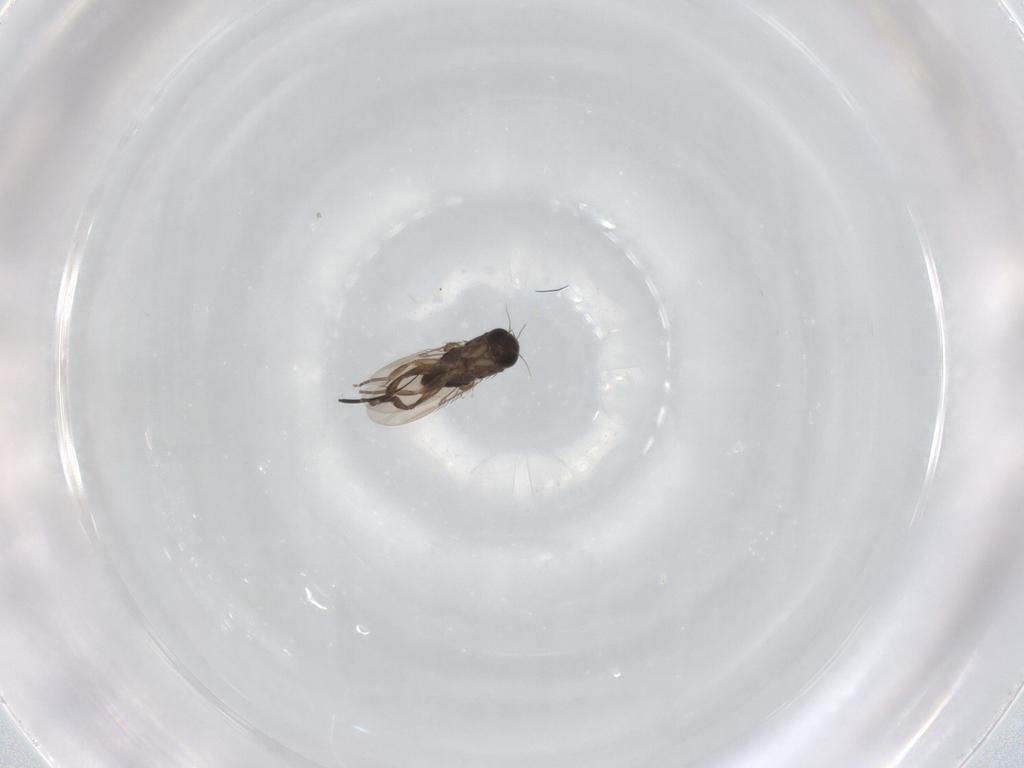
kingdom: Animalia
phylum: Arthropoda
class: Insecta
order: Diptera
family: Phoridae
